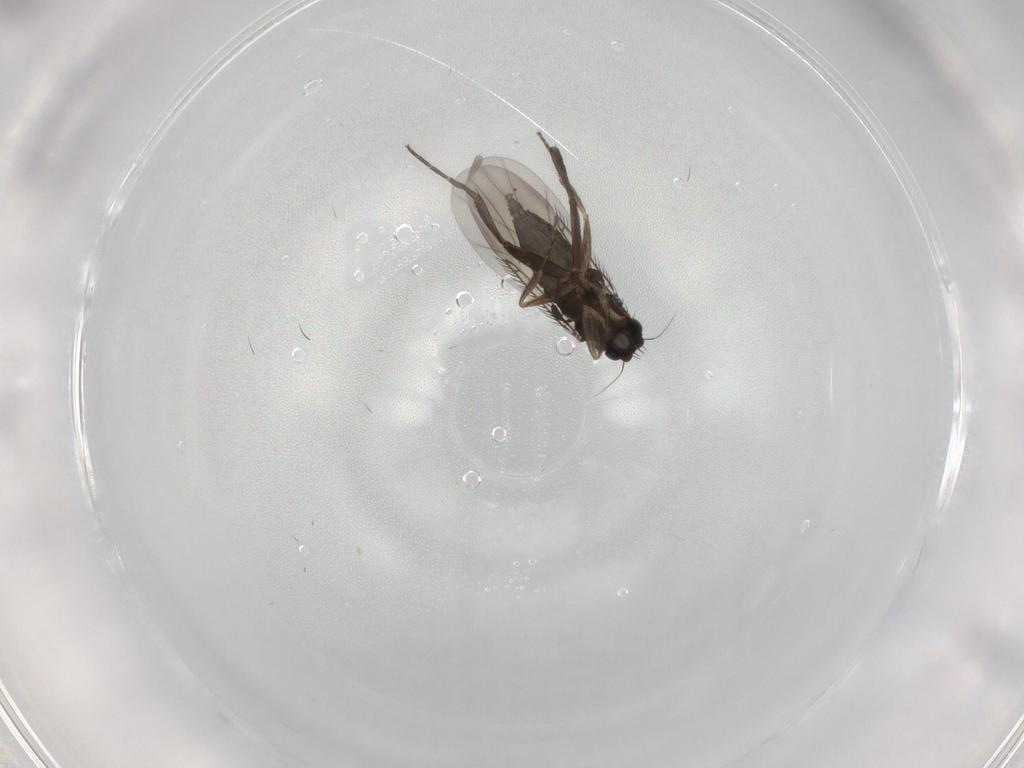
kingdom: Animalia
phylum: Arthropoda
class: Insecta
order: Diptera
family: Phoridae
